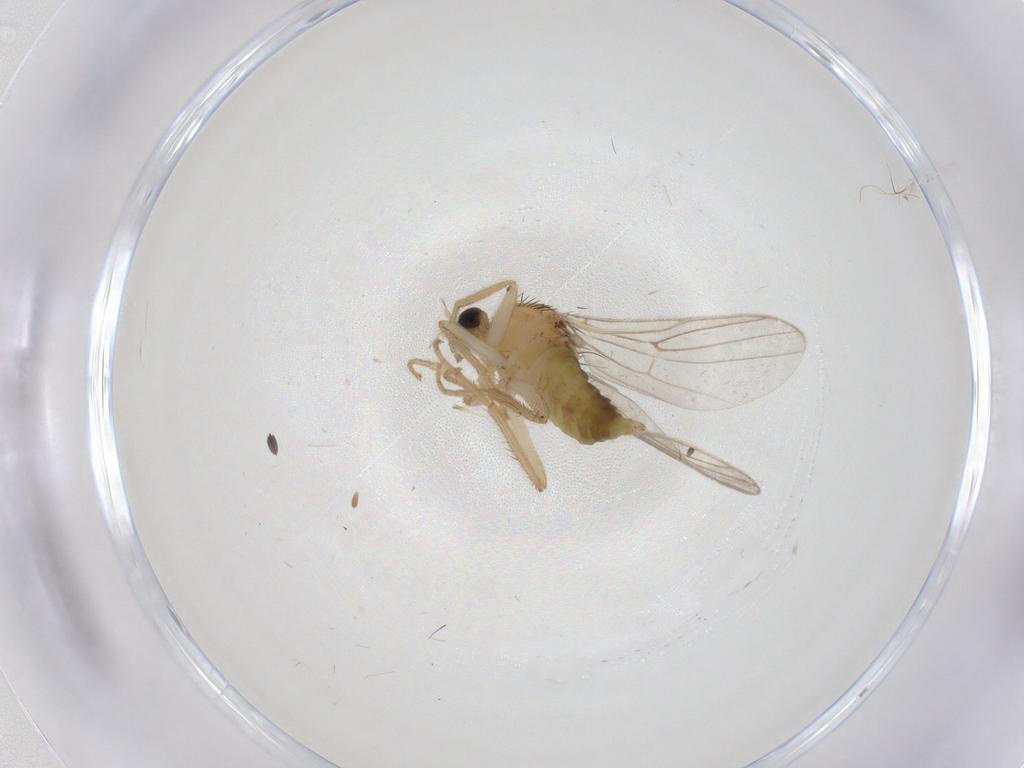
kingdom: Animalia
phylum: Arthropoda
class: Insecta
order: Diptera
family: Hybotidae
